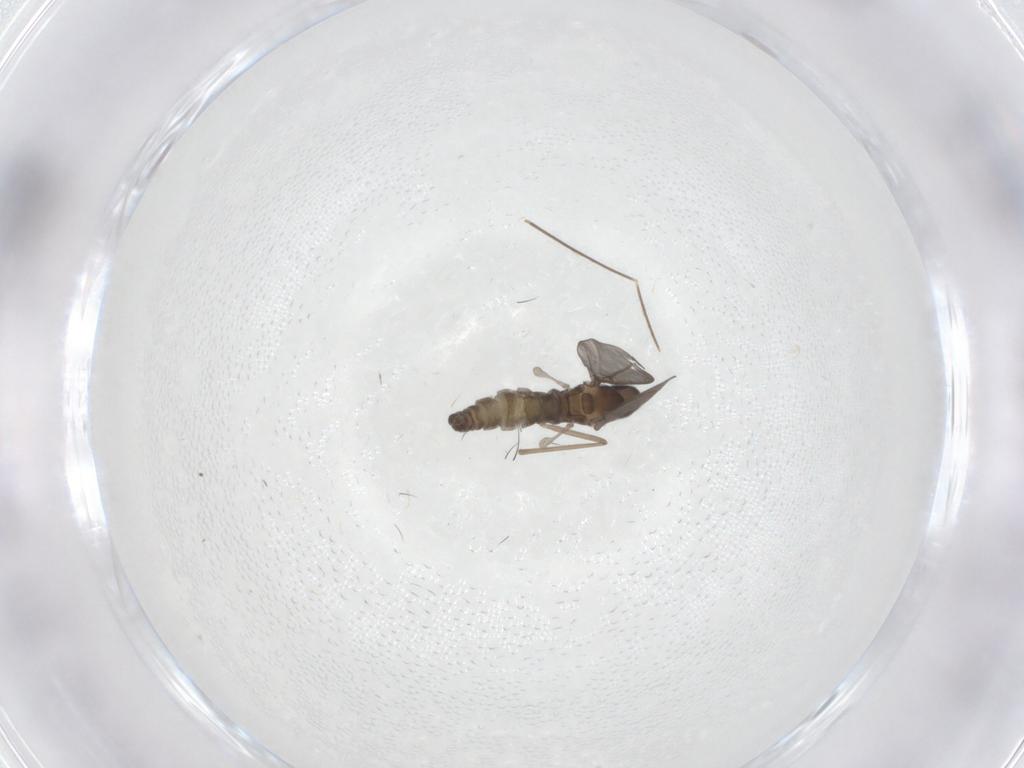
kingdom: Animalia
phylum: Arthropoda
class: Insecta
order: Diptera
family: Cecidomyiidae
